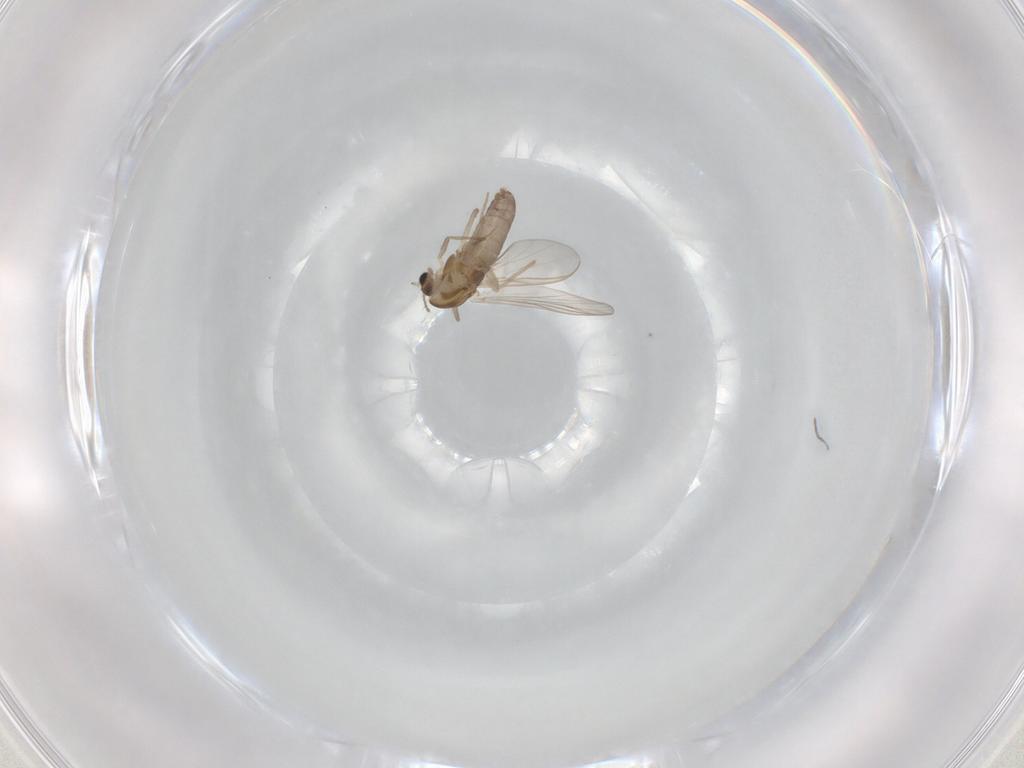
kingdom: Animalia
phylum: Arthropoda
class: Insecta
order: Diptera
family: Chironomidae
